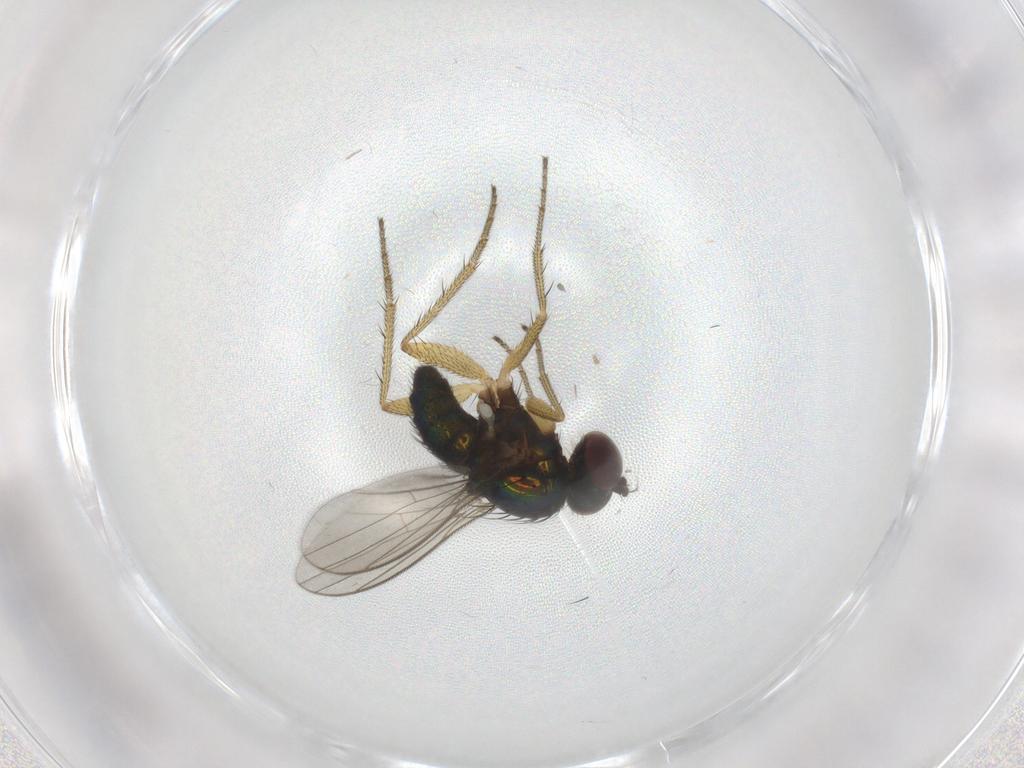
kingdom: Animalia
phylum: Arthropoda
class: Insecta
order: Diptera
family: Dolichopodidae
